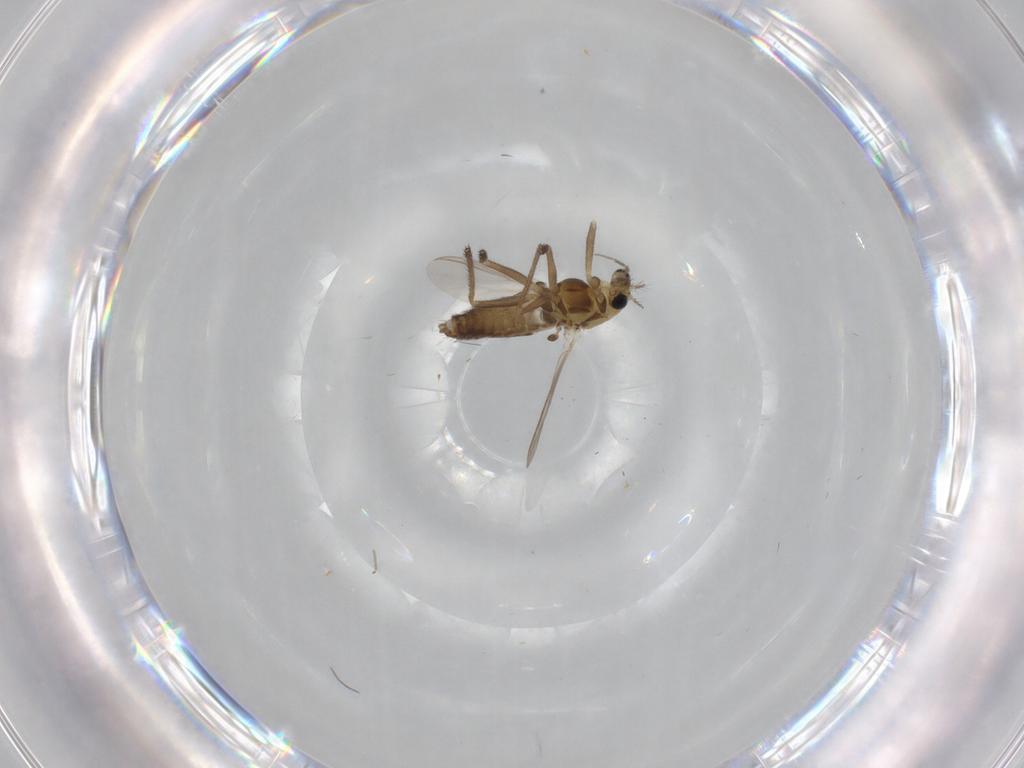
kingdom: Animalia
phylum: Arthropoda
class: Insecta
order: Diptera
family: Chironomidae
